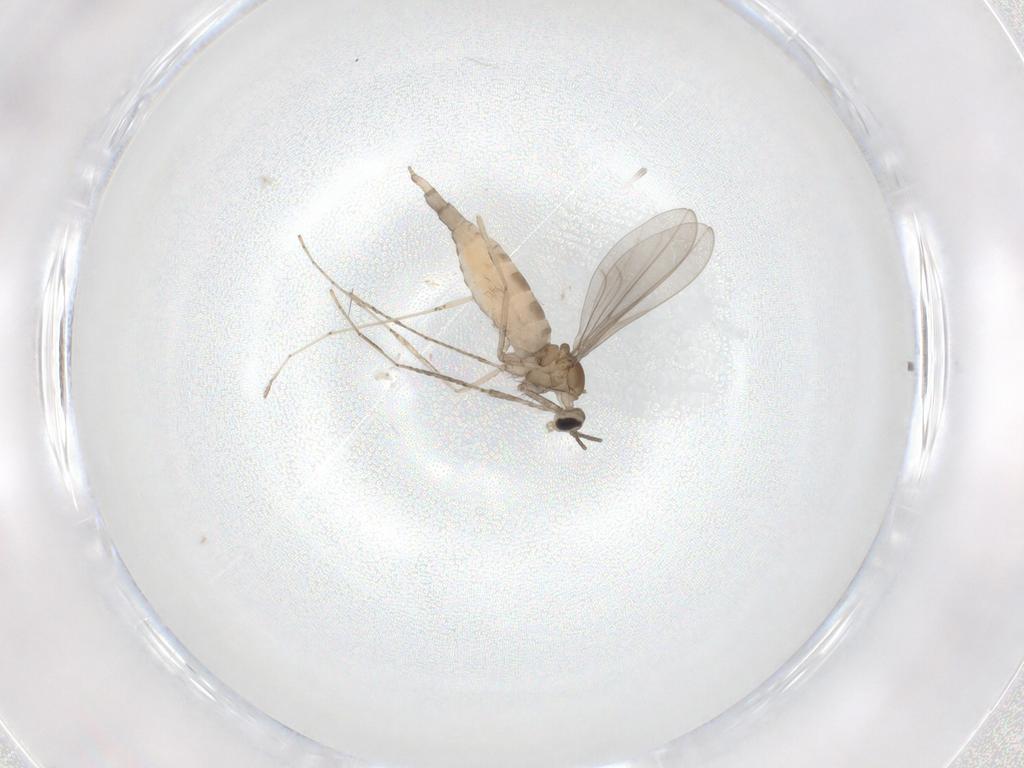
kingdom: Animalia
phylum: Arthropoda
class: Insecta
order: Diptera
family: Cecidomyiidae
